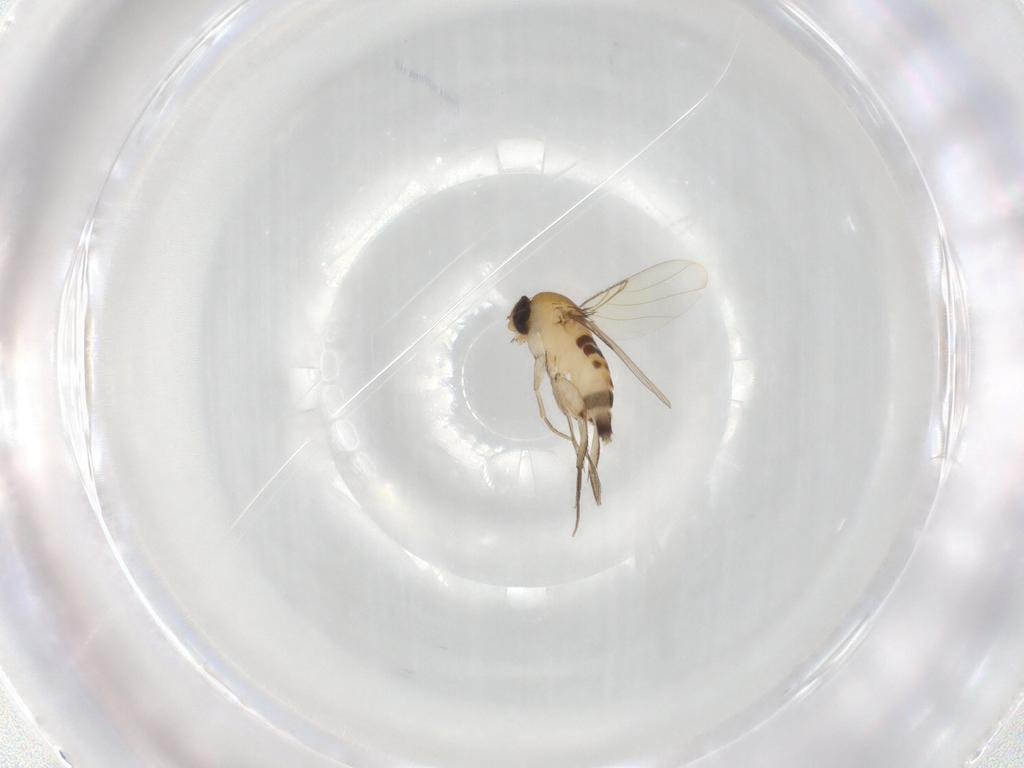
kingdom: Animalia
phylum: Arthropoda
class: Insecta
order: Diptera
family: Phoridae
